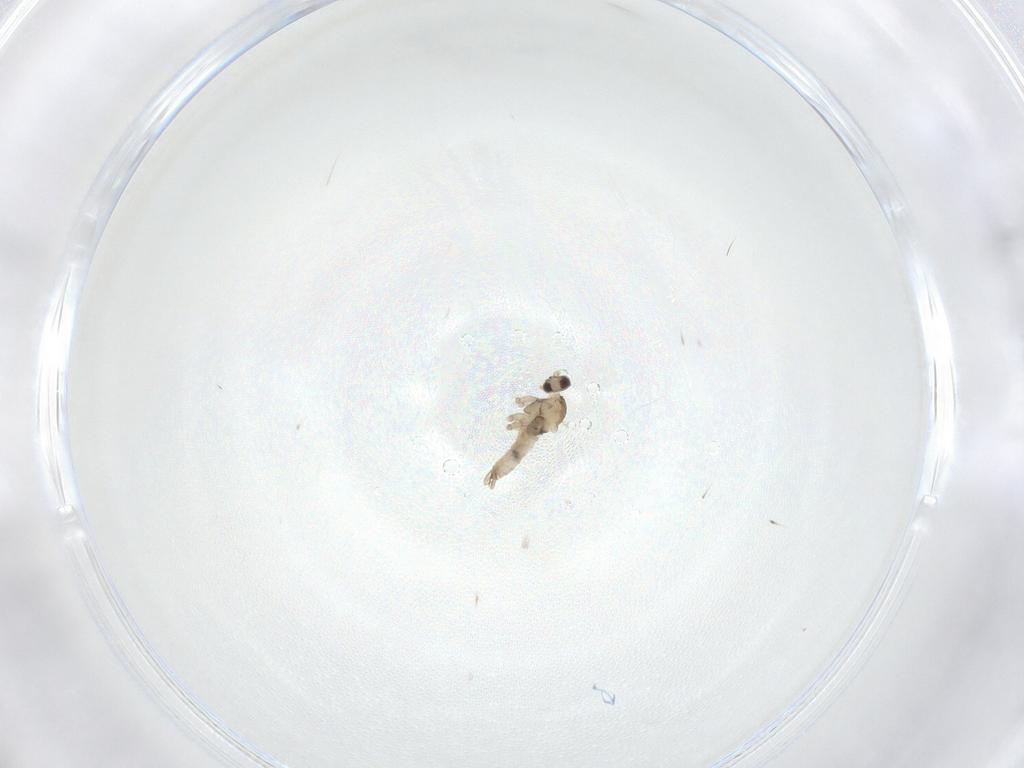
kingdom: Animalia
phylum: Arthropoda
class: Insecta
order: Diptera
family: Cecidomyiidae
